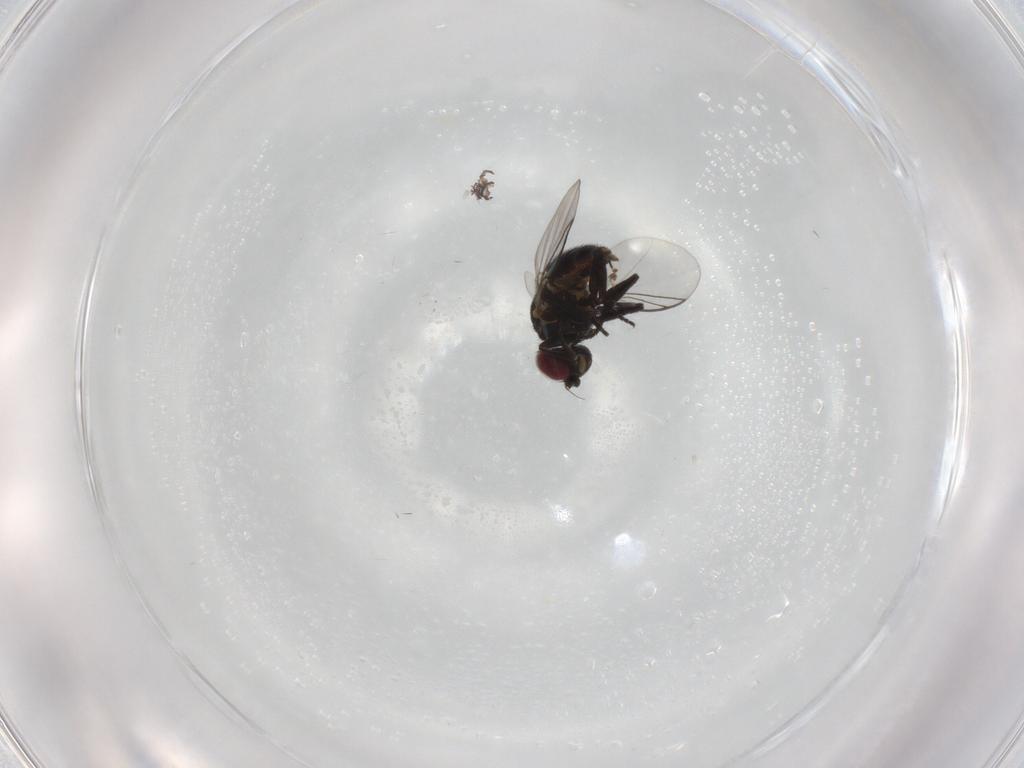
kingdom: Animalia
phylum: Arthropoda
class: Insecta
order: Diptera
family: Agromyzidae
